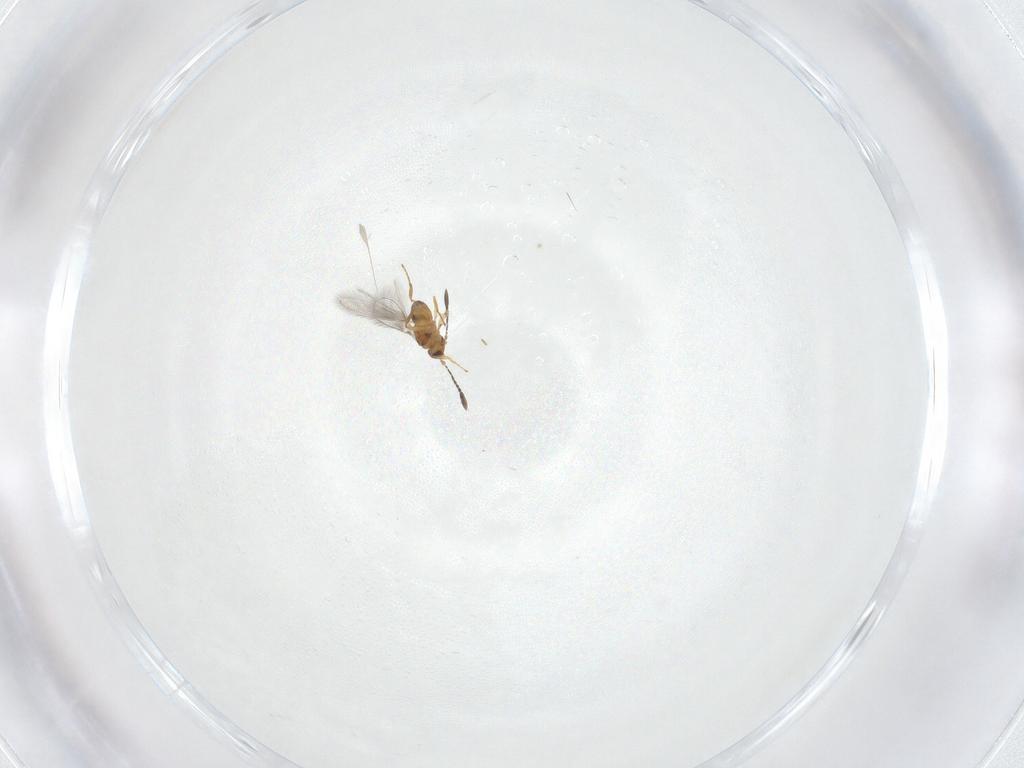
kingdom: Animalia
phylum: Arthropoda
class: Insecta
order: Hymenoptera
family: Mymaridae
